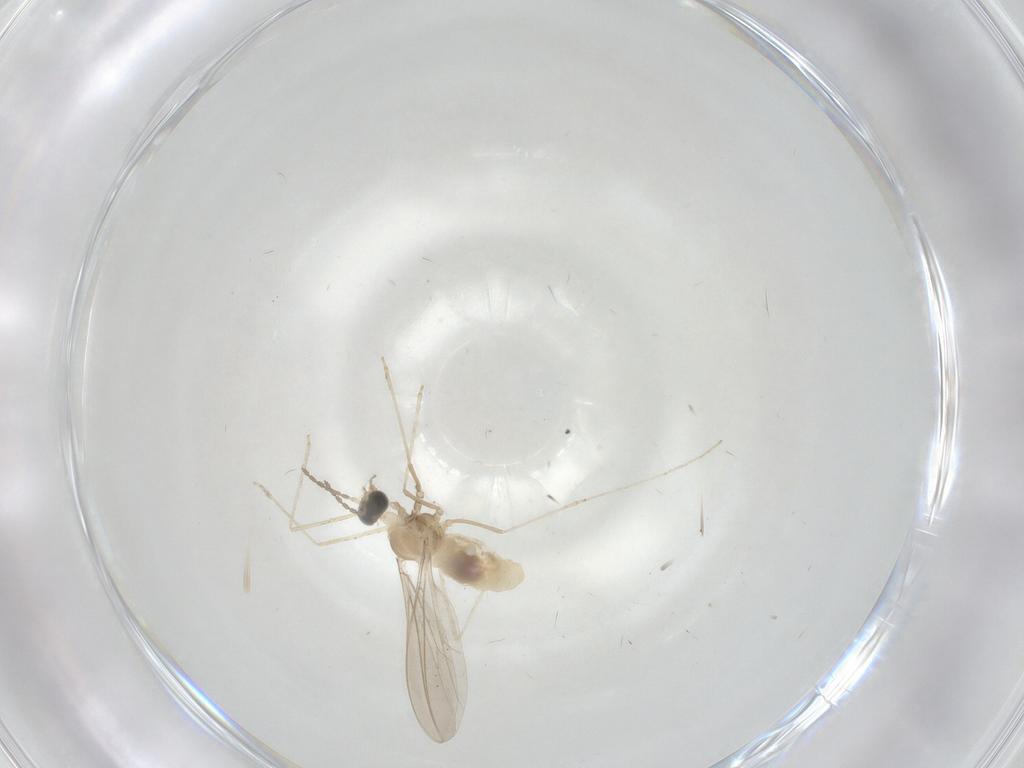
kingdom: Animalia
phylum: Arthropoda
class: Insecta
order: Diptera
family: Cecidomyiidae
